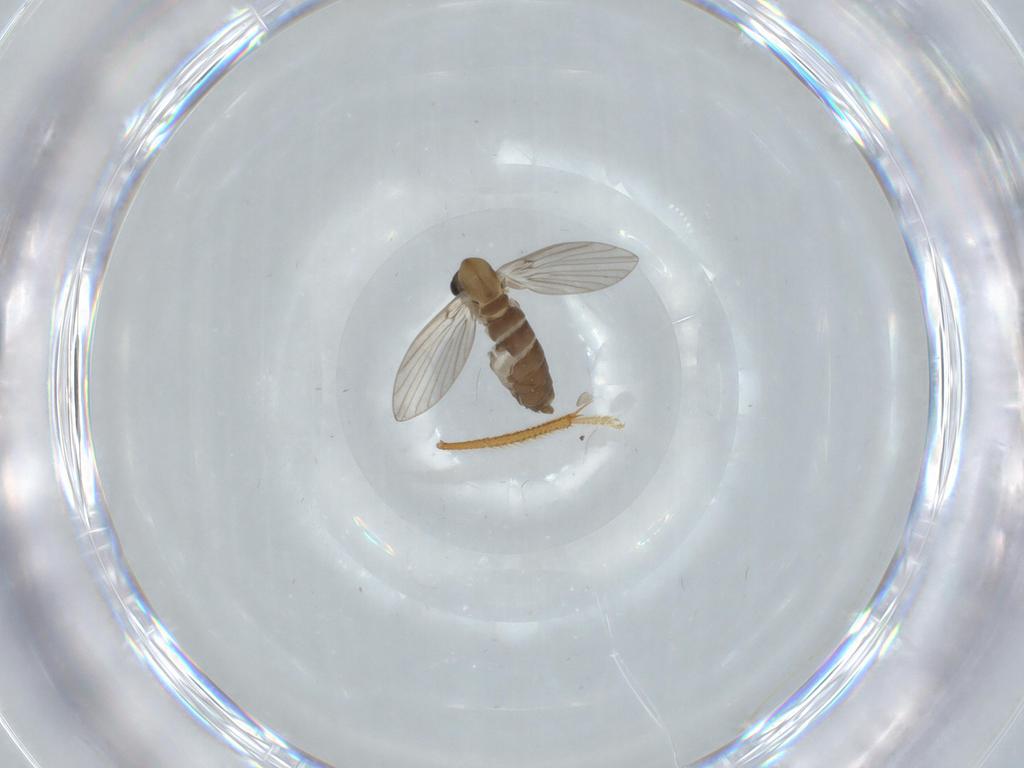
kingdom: Animalia
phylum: Arthropoda
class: Insecta
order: Diptera
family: Psychodidae
